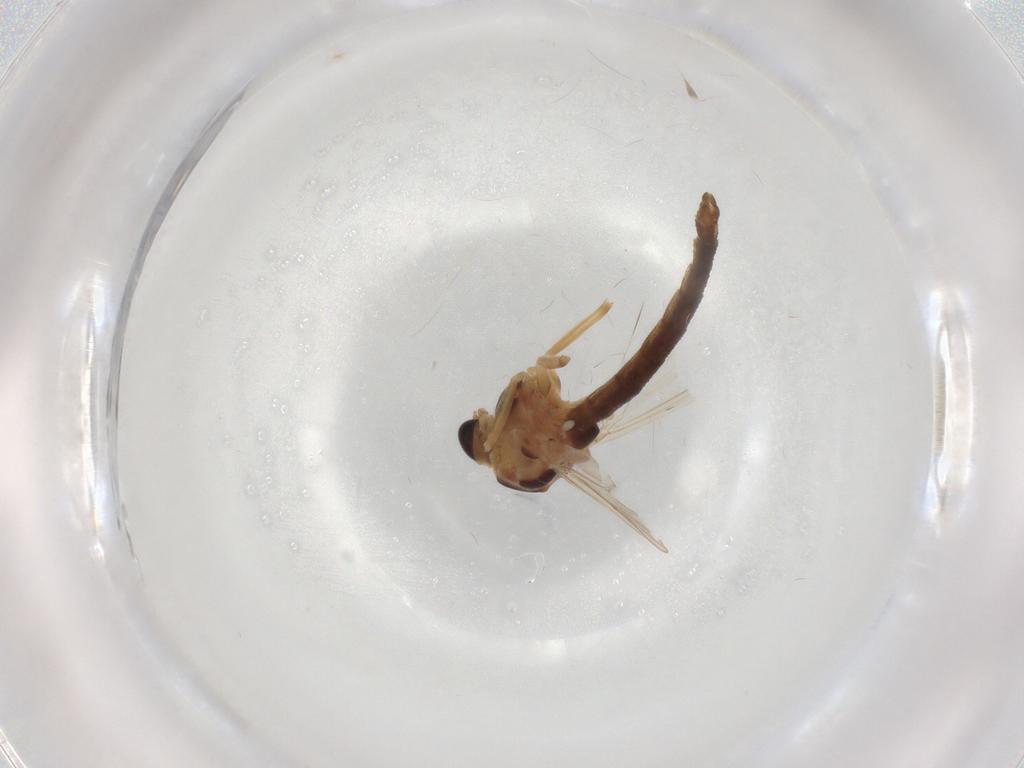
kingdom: Animalia
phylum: Arthropoda
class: Insecta
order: Diptera
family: Chironomidae
